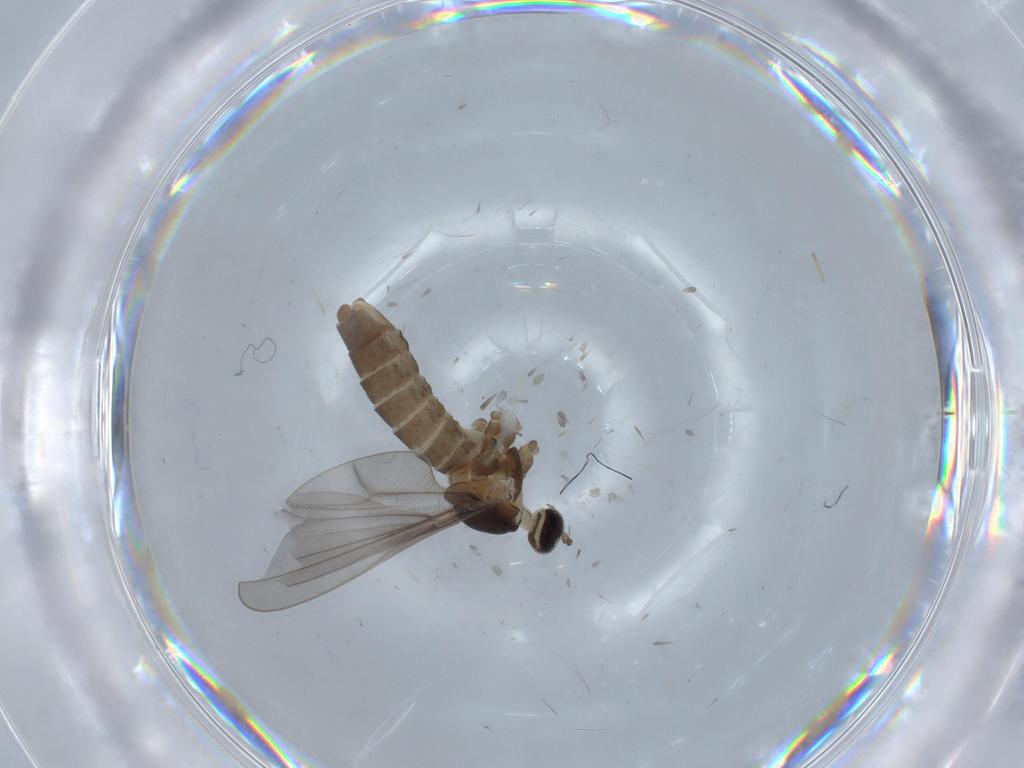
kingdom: Animalia
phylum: Arthropoda
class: Insecta
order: Diptera
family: Cecidomyiidae
